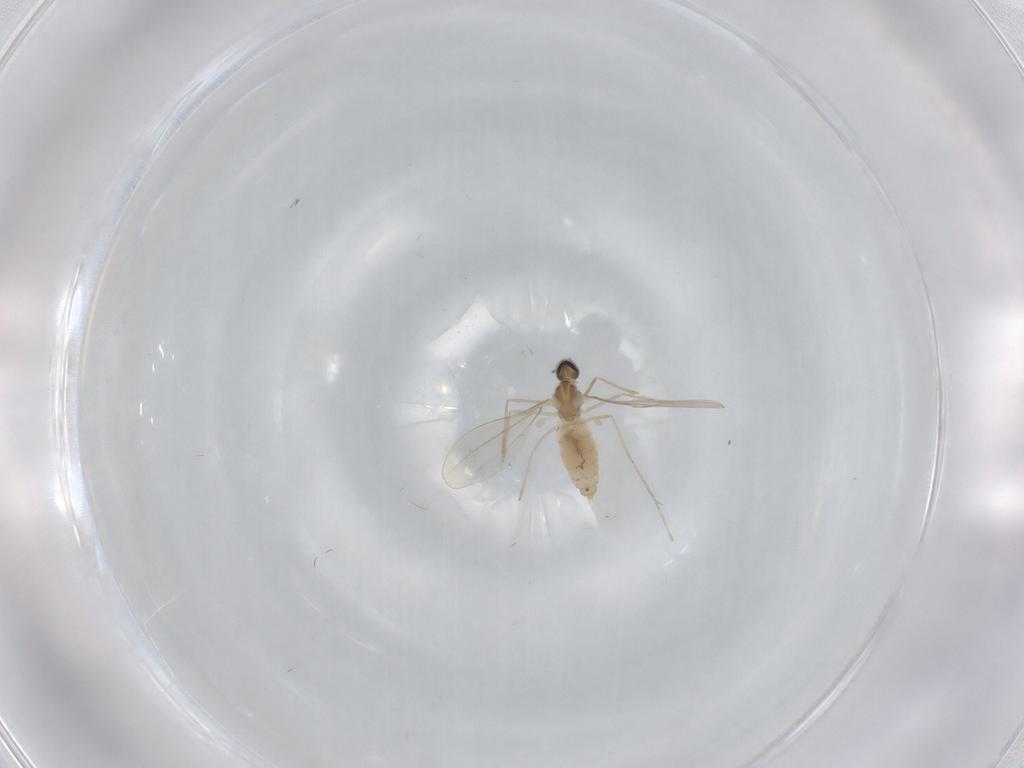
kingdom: Animalia
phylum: Arthropoda
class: Insecta
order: Diptera
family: Cecidomyiidae
